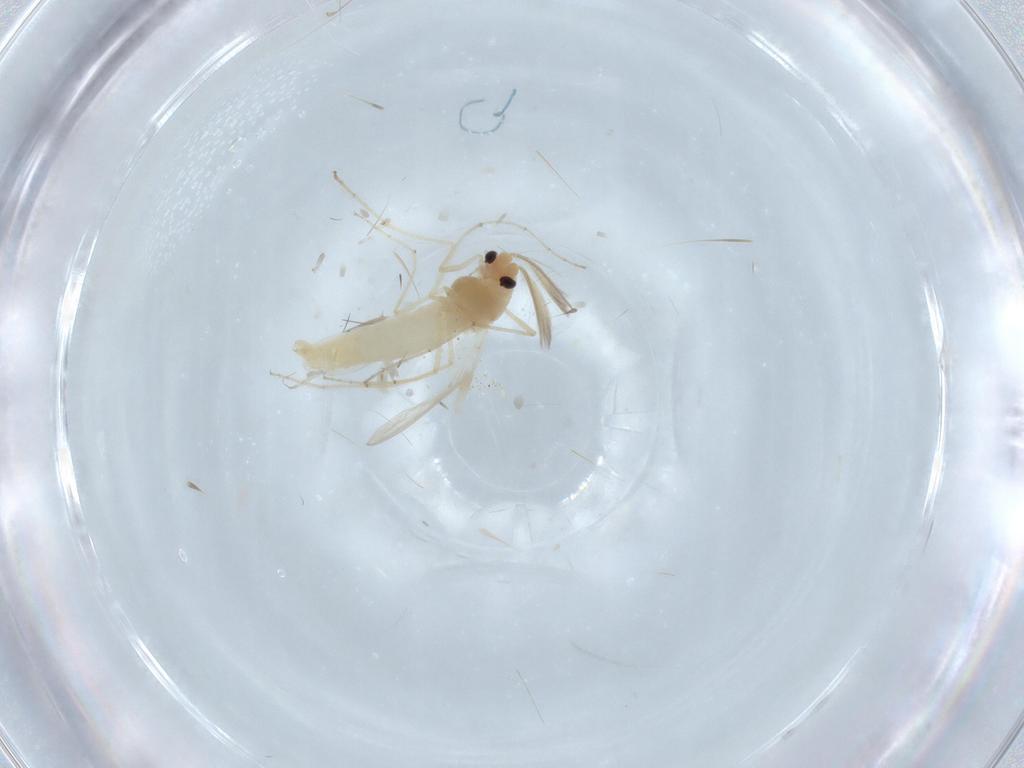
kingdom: Animalia
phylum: Arthropoda
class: Insecta
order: Diptera
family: Chironomidae
